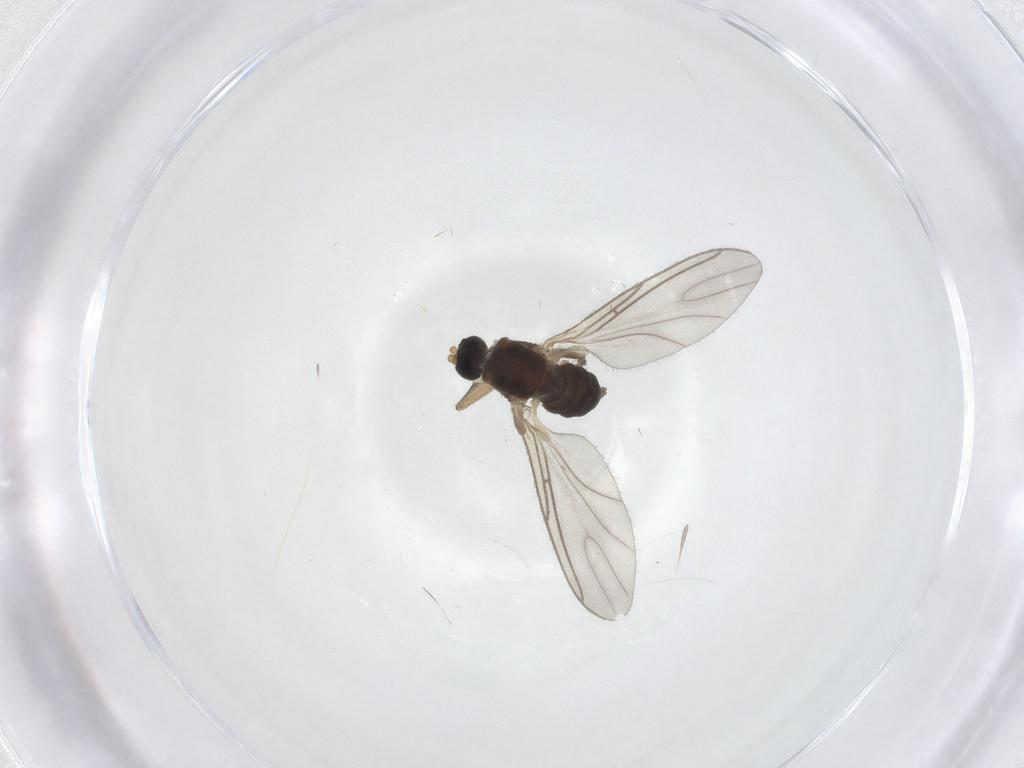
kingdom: Animalia
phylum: Arthropoda
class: Insecta
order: Diptera
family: Sciaridae
